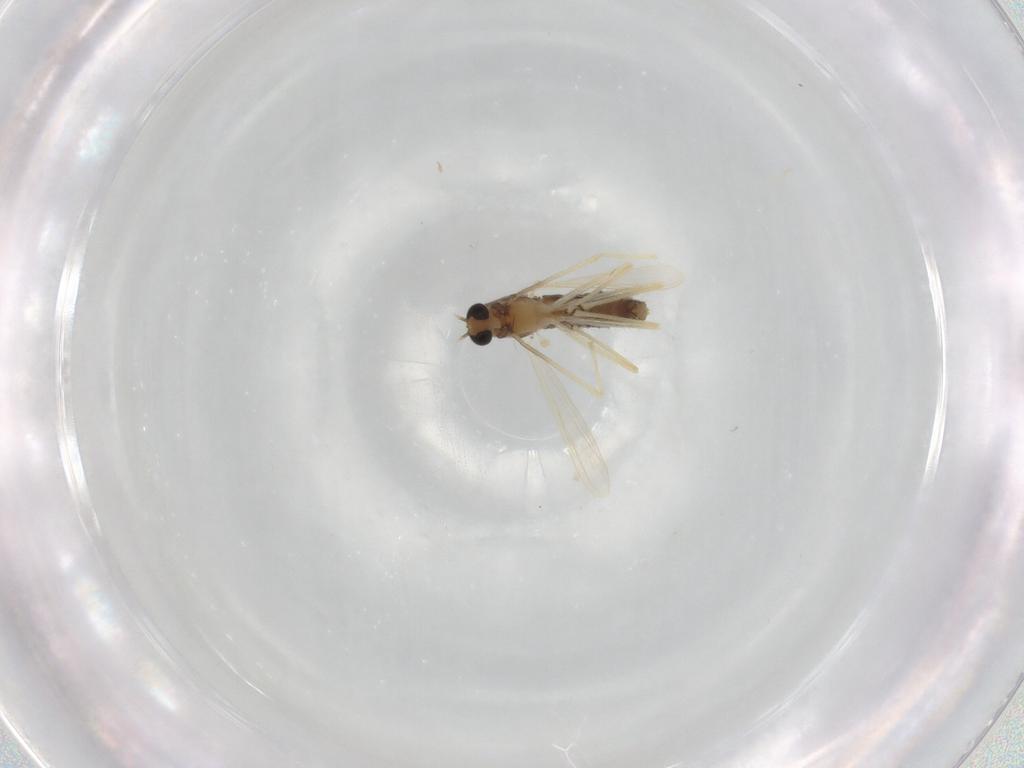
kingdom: Animalia
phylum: Arthropoda
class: Insecta
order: Diptera
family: Chironomidae
